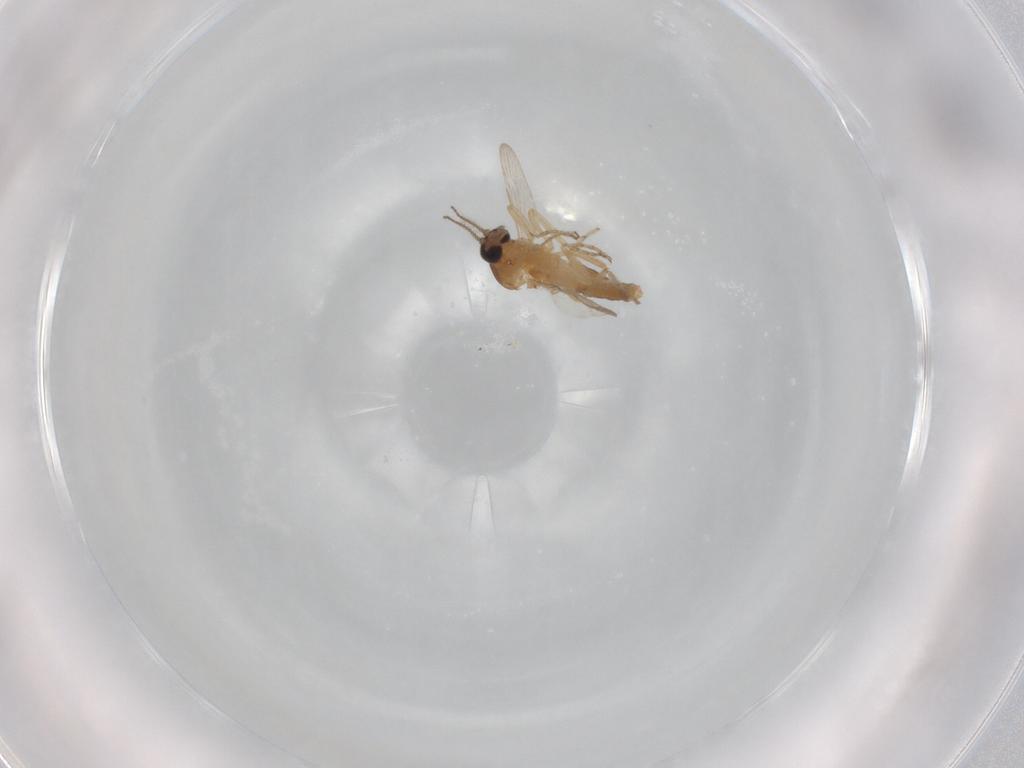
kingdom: Animalia
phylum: Arthropoda
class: Insecta
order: Diptera
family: Ceratopogonidae
